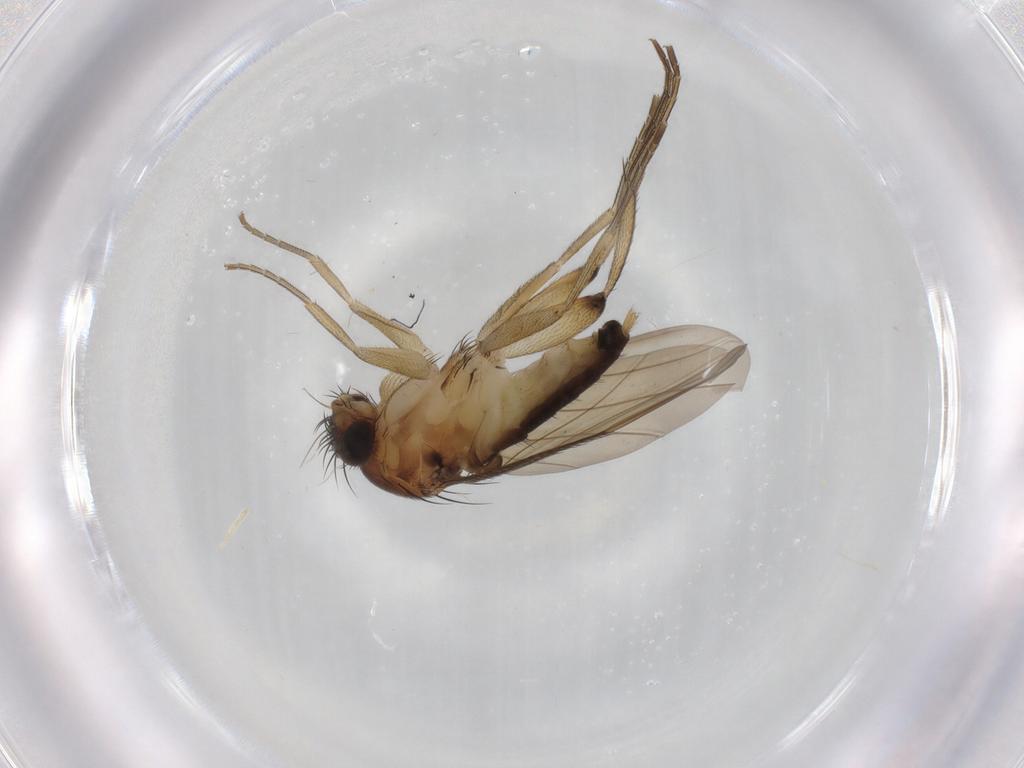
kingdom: Animalia
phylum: Arthropoda
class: Insecta
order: Diptera
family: Phoridae
